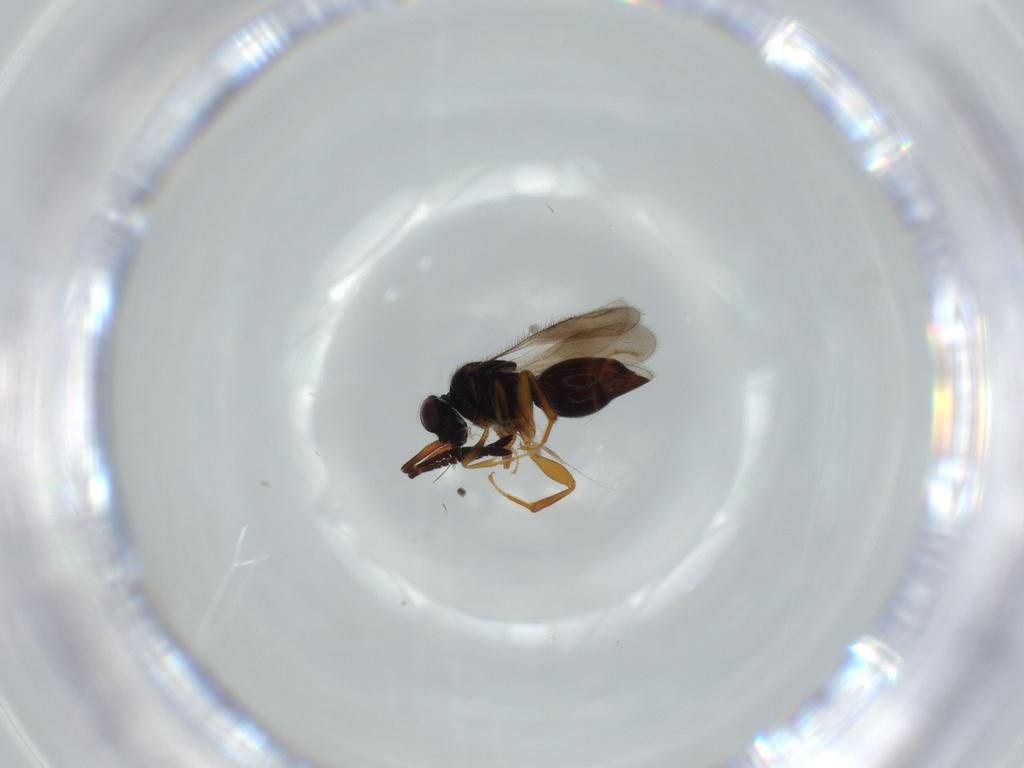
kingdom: Animalia
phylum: Arthropoda
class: Insecta
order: Diptera
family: Dolichopodidae
